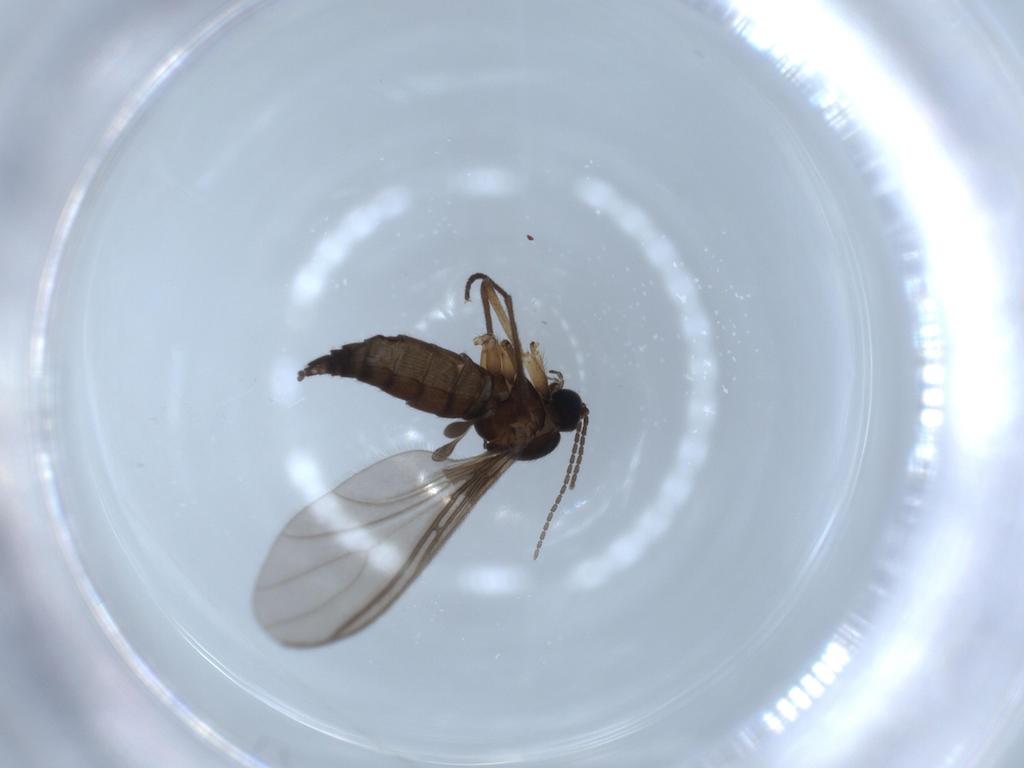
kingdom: Animalia
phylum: Arthropoda
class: Insecta
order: Diptera
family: Sciaridae
